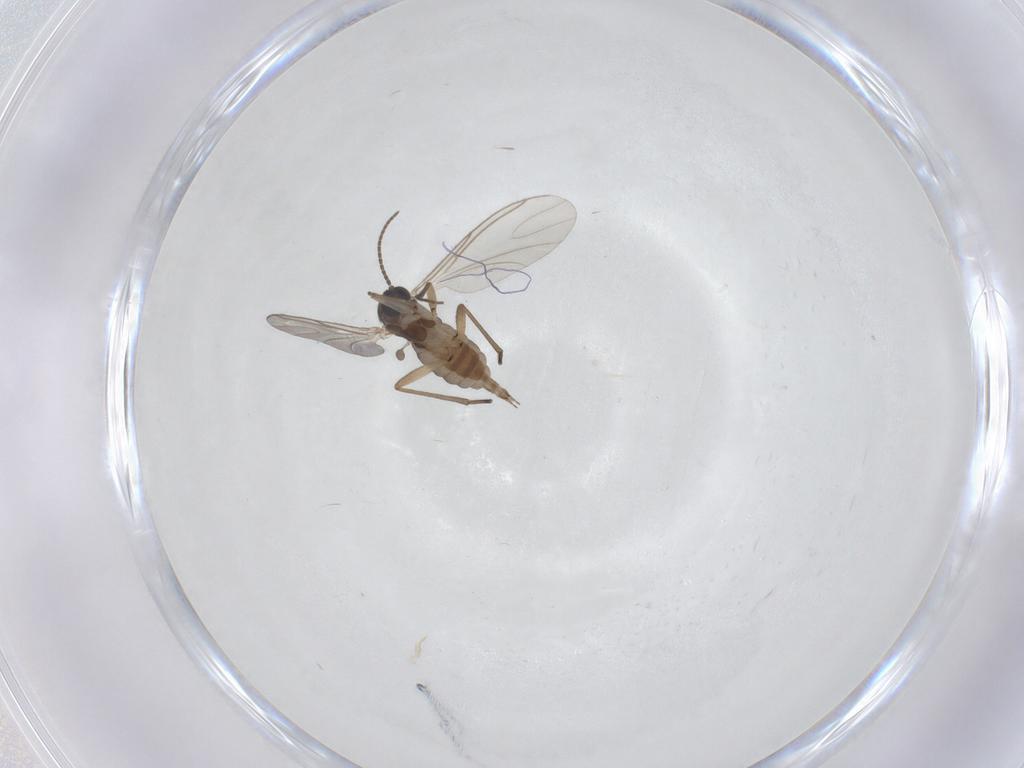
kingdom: Animalia
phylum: Arthropoda
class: Insecta
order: Diptera
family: Sciaridae
